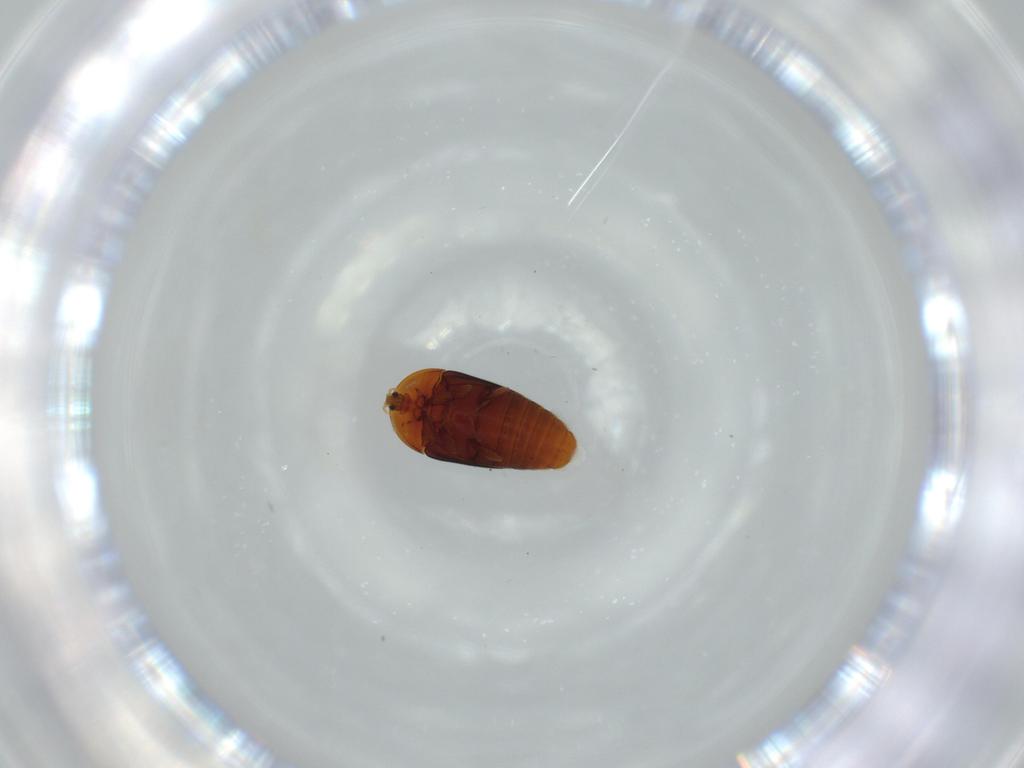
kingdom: Animalia
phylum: Arthropoda
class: Insecta
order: Coleoptera
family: Corylophidae
